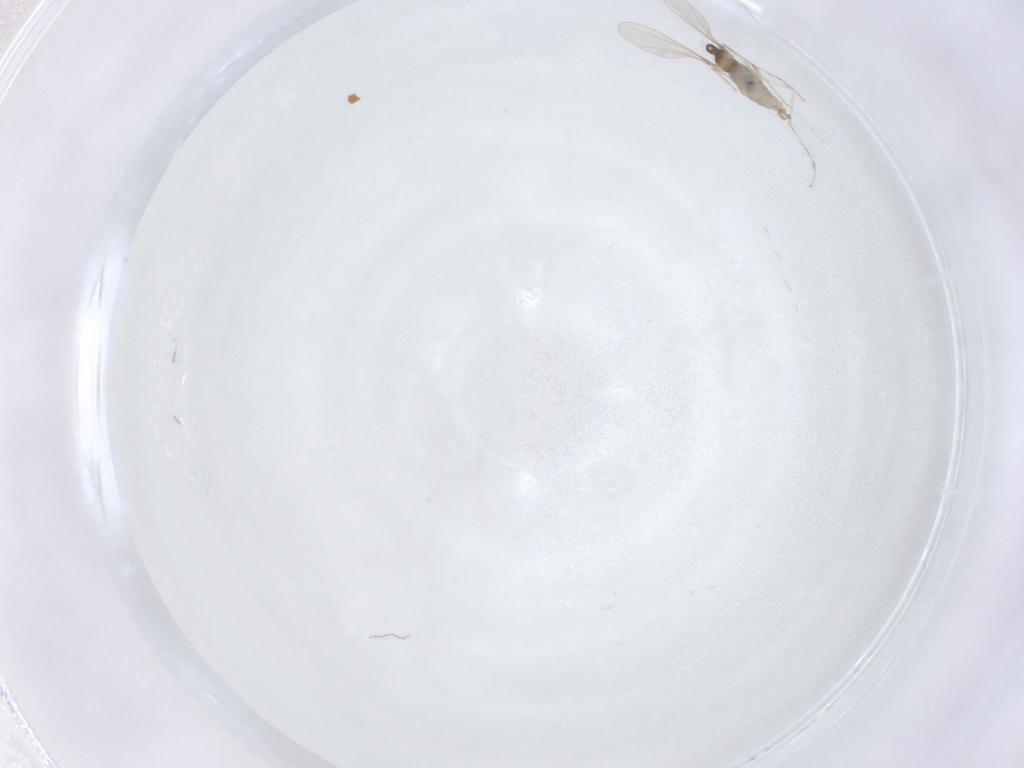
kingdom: Animalia
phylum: Arthropoda
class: Insecta
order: Diptera
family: Cecidomyiidae
